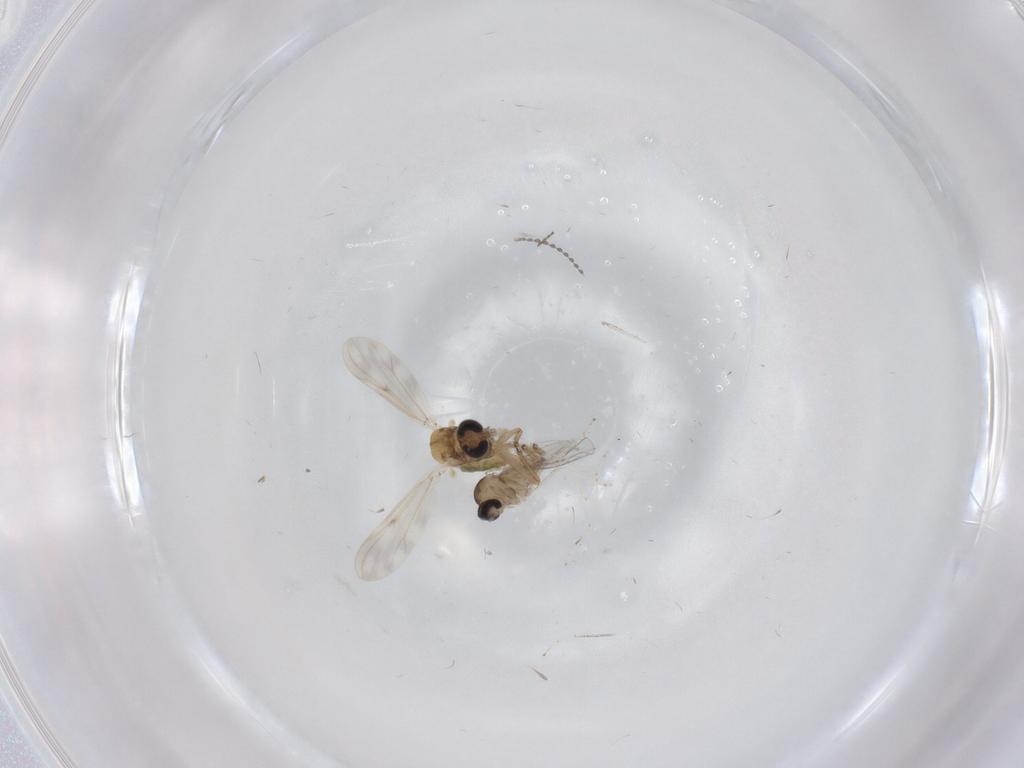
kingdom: Animalia
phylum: Arthropoda
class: Insecta
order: Diptera
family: Chironomidae
